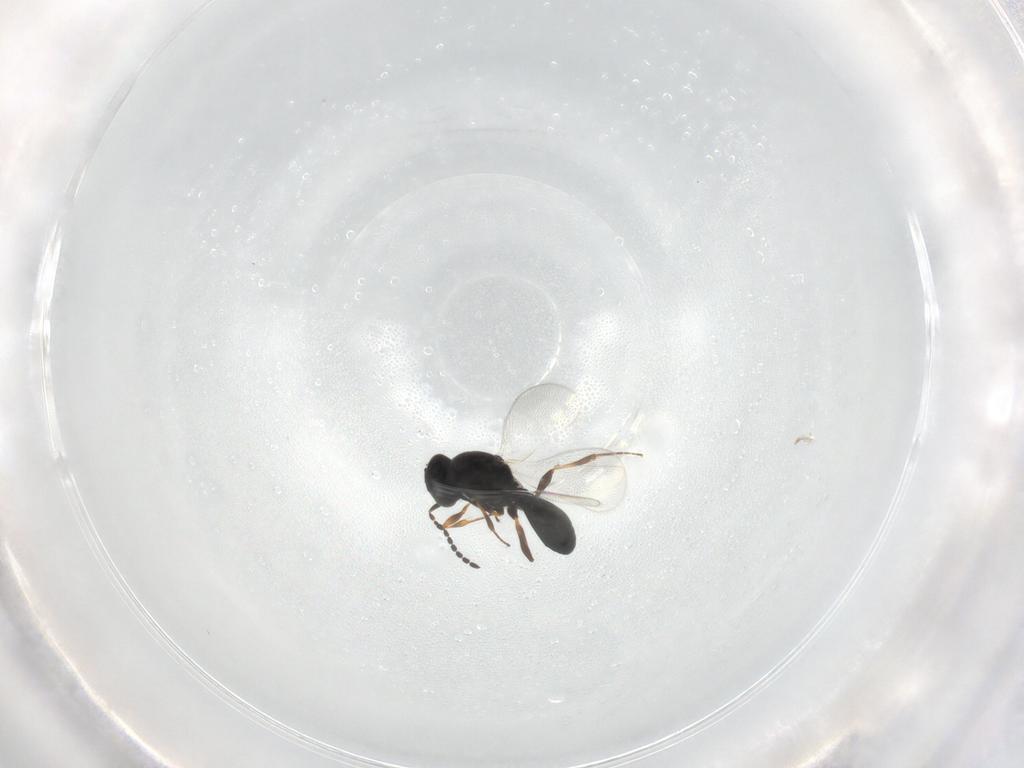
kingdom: Animalia
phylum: Arthropoda
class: Insecta
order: Hymenoptera
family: Platygastridae
